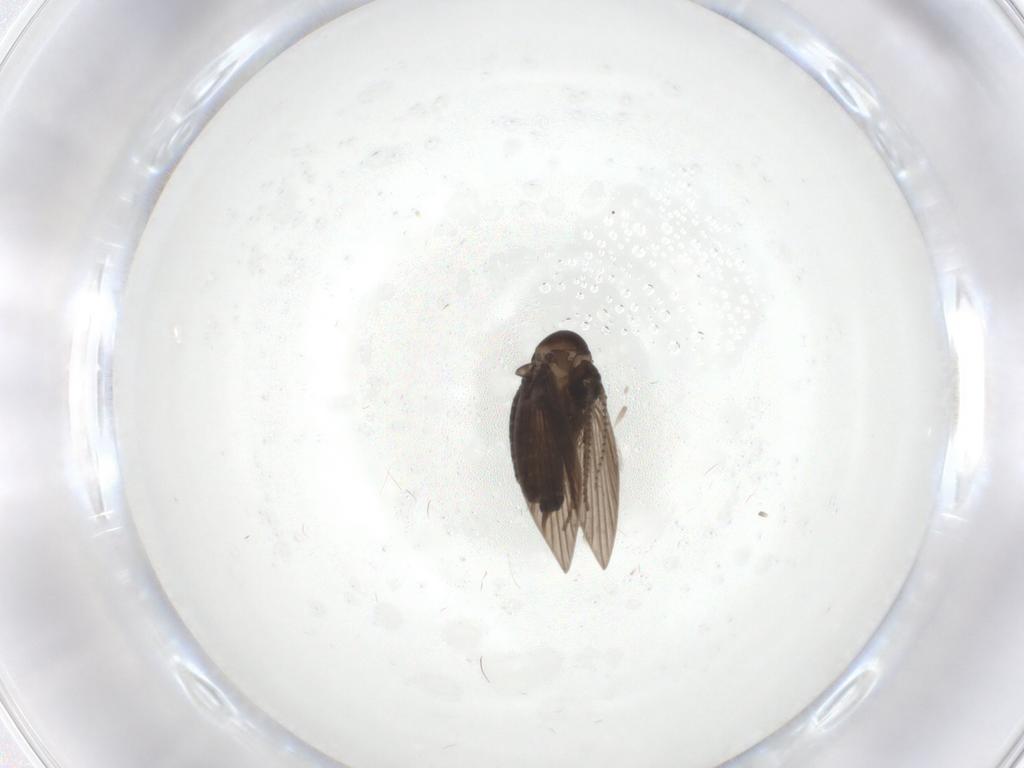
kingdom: Animalia
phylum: Arthropoda
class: Insecta
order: Diptera
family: Psychodidae
